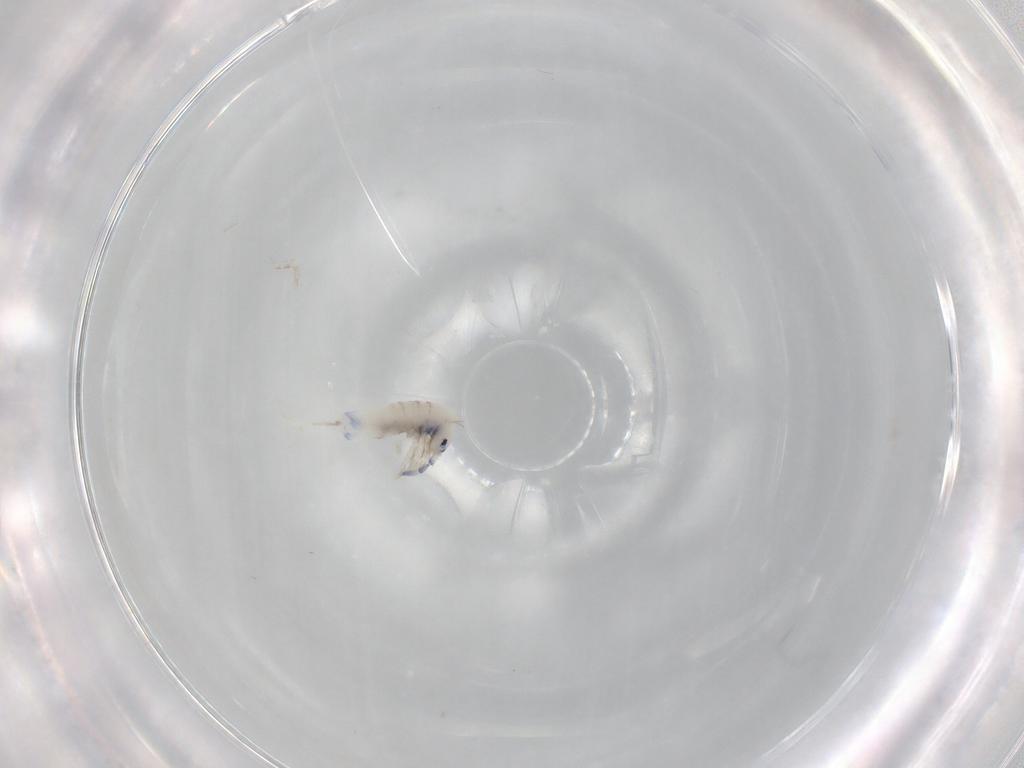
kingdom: Animalia
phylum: Arthropoda
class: Collembola
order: Entomobryomorpha
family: Entomobryidae
